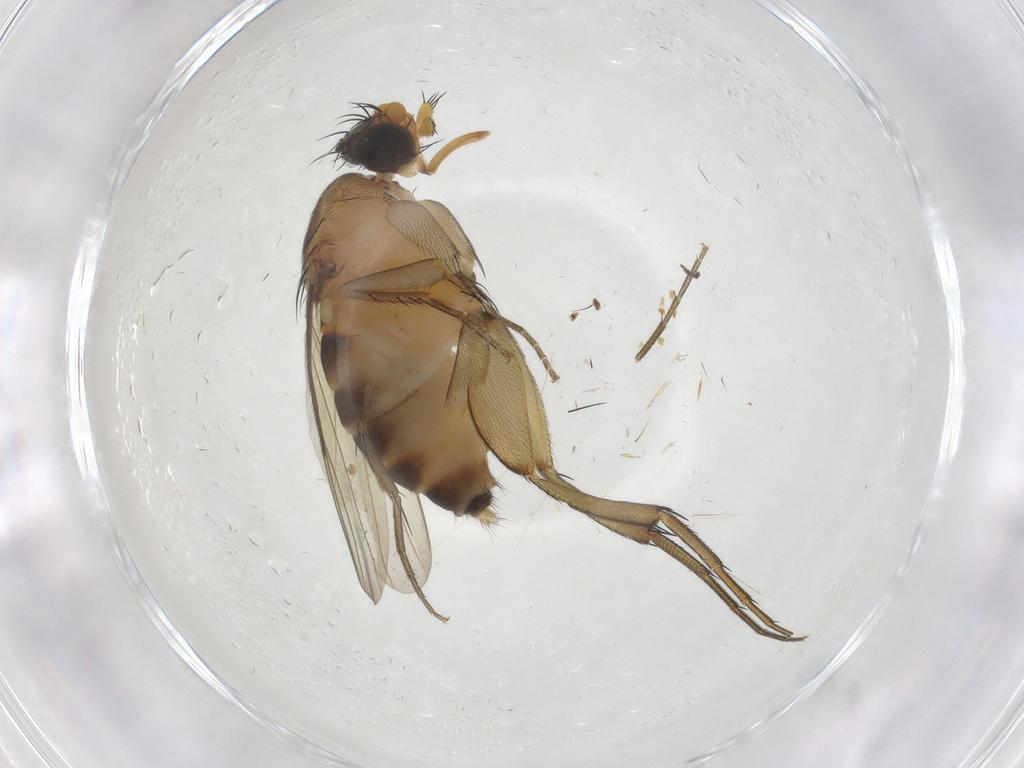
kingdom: Animalia
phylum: Arthropoda
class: Insecta
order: Diptera
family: Phoridae
